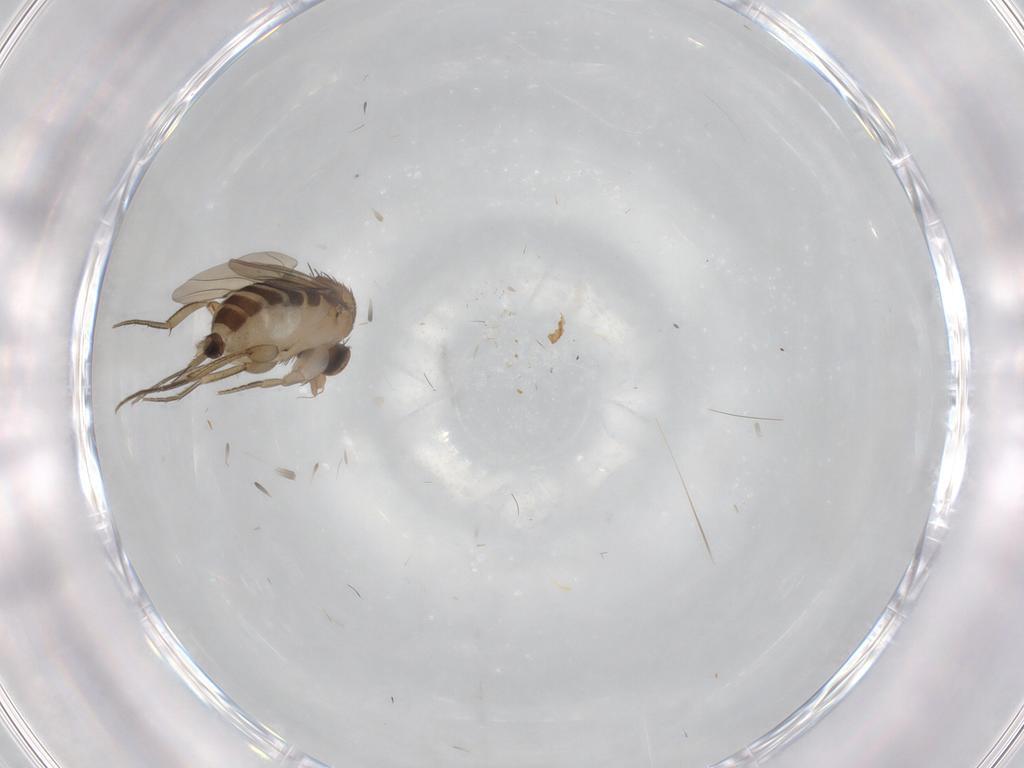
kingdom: Animalia
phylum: Arthropoda
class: Insecta
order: Diptera
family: Phoridae
